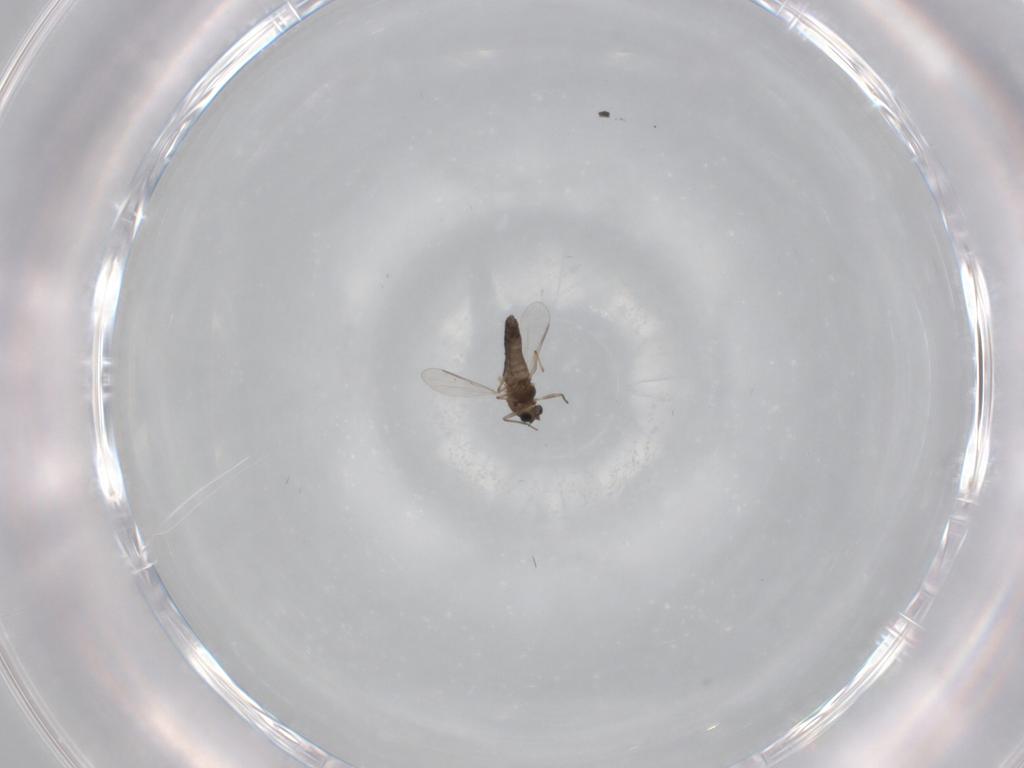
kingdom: Animalia
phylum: Arthropoda
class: Insecta
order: Diptera
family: Chironomidae
